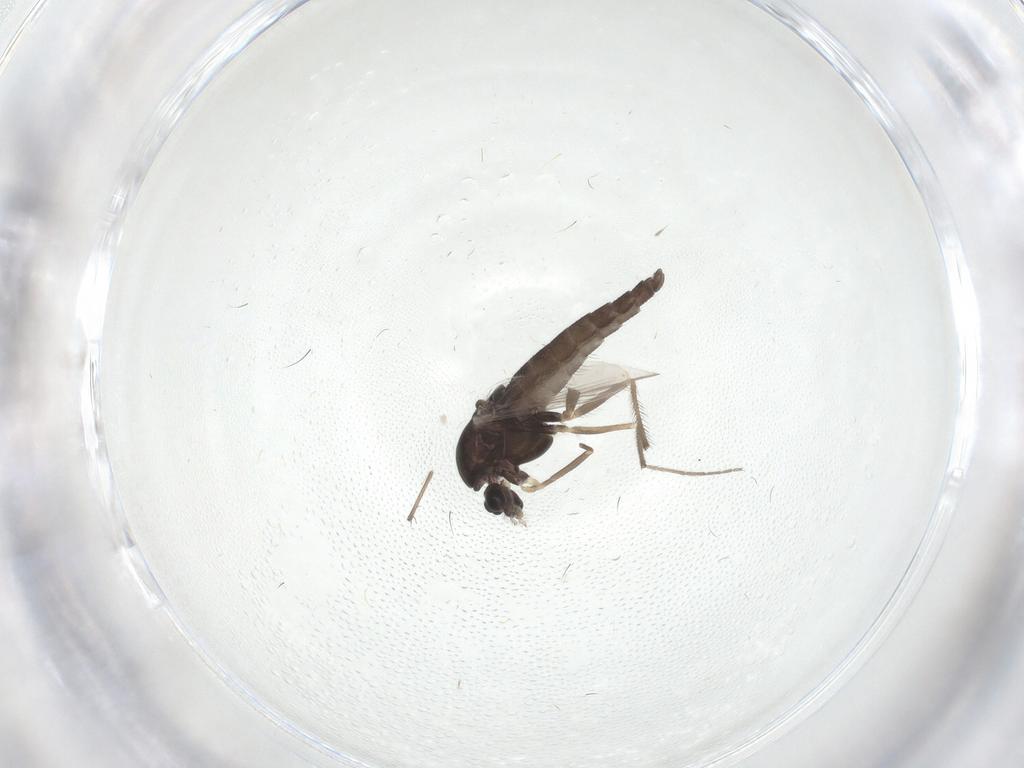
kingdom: Animalia
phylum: Arthropoda
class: Insecta
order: Diptera
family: Chironomidae
